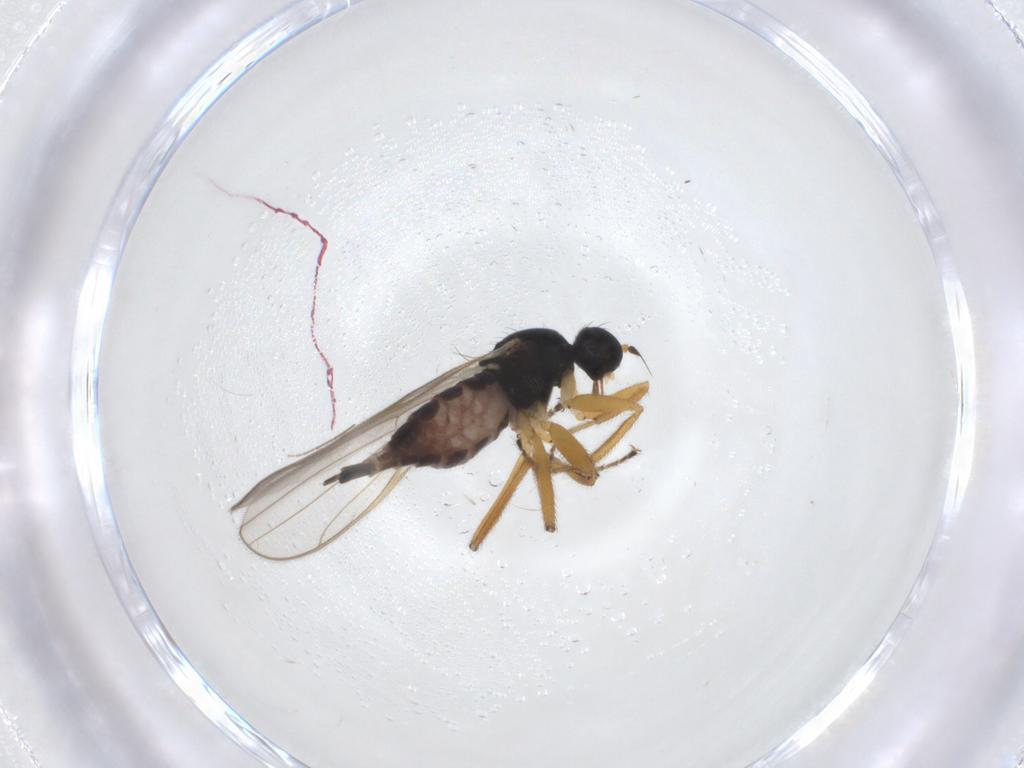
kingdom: Animalia
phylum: Arthropoda
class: Insecta
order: Diptera
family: Hybotidae
